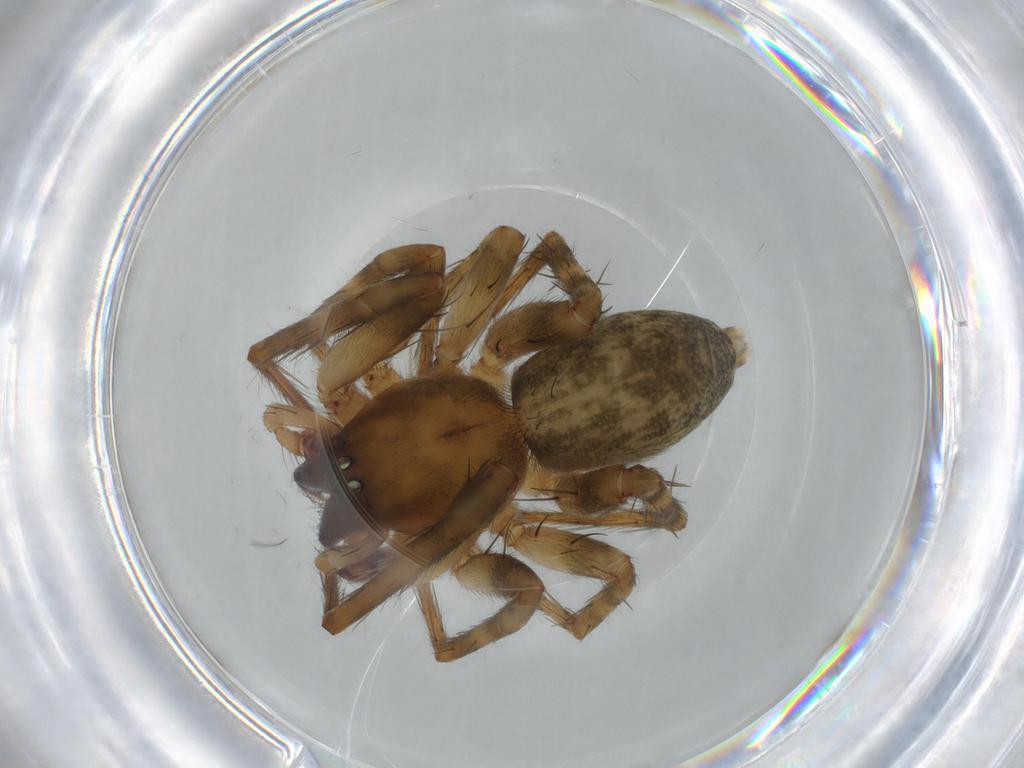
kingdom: Animalia
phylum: Arthropoda
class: Arachnida
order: Araneae
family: Anyphaenidae
